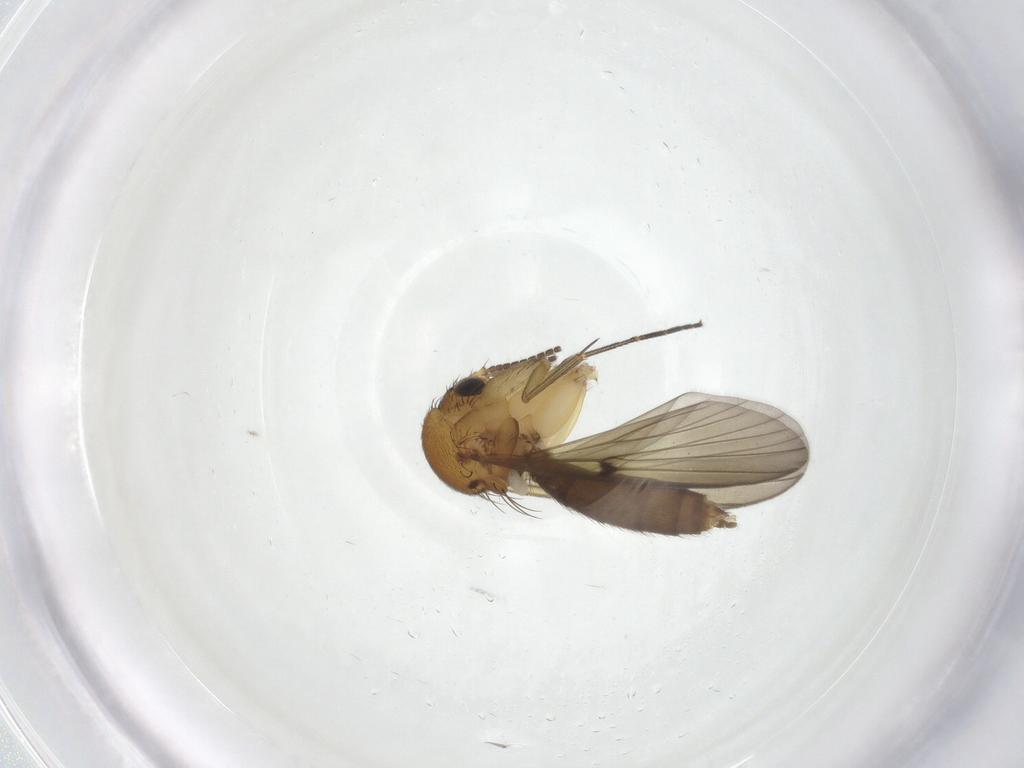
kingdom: Animalia
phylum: Arthropoda
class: Insecta
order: Diptera
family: Mycetophilidae
